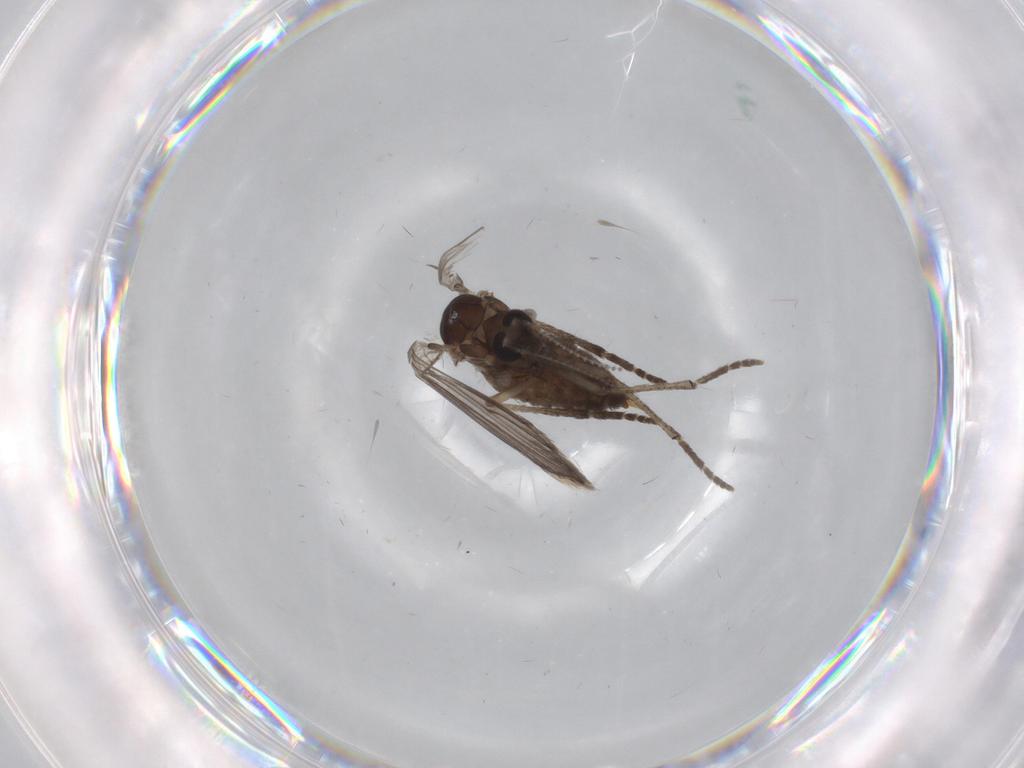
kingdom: Animalia
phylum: Arthropoda
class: Insecta
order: Diptera
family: Psychodidae
